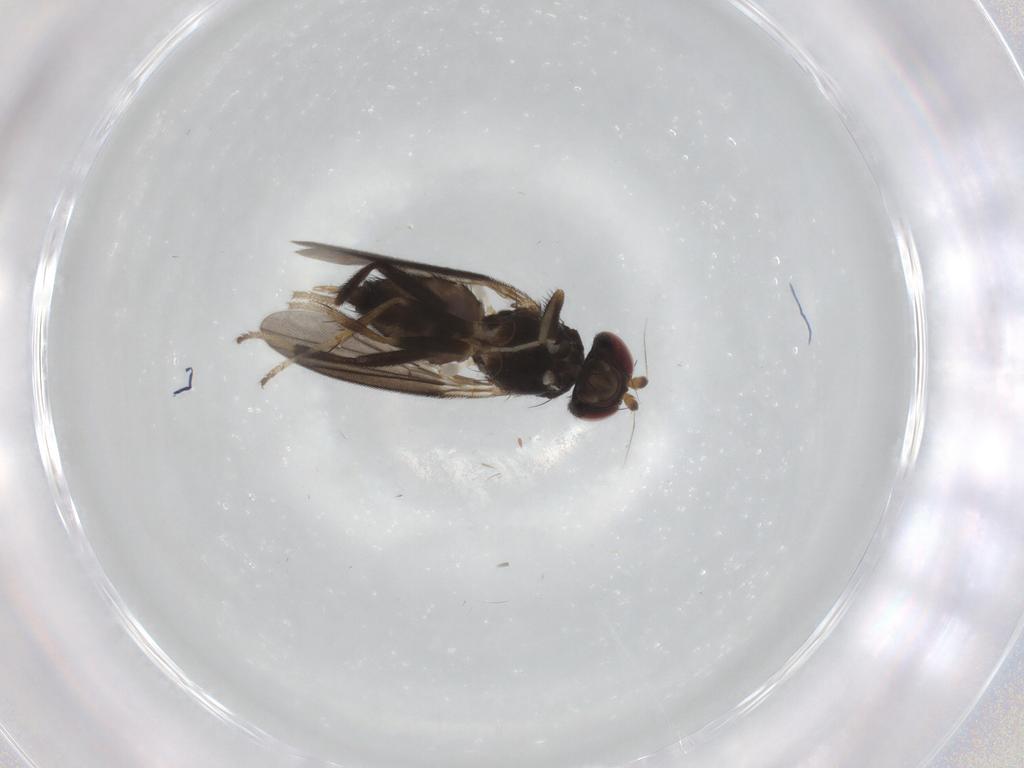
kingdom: Animalia
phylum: Arthropoda
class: Insecta
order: Diptera
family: Clusiidae
